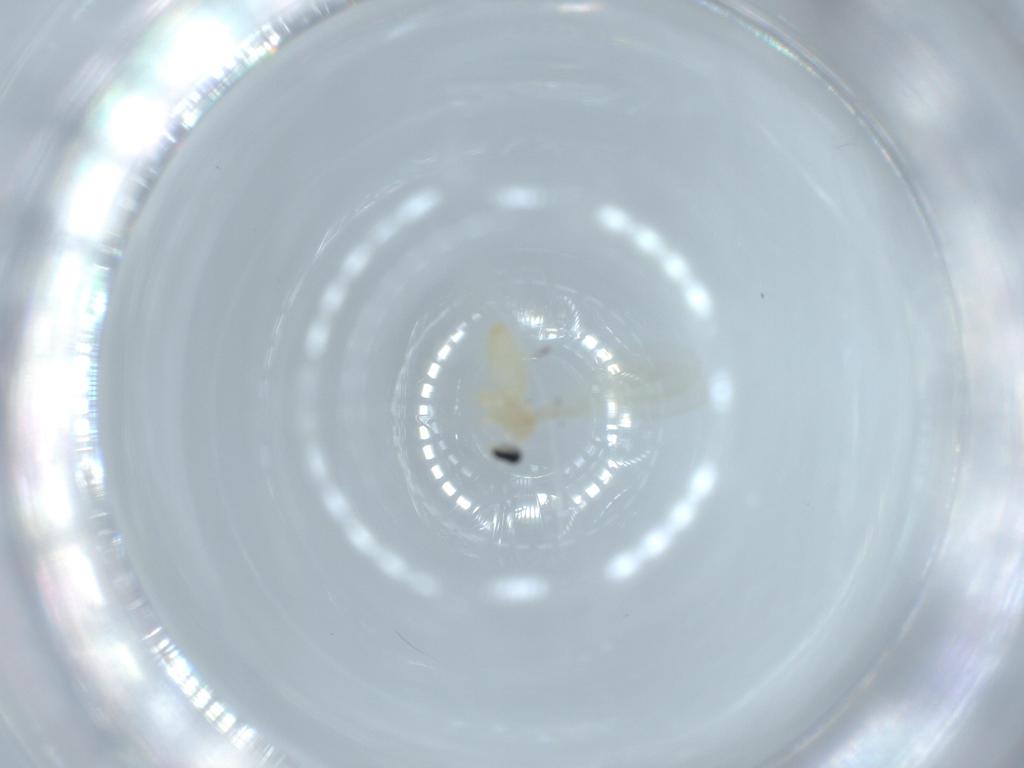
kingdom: Animalia
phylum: Arthropoda
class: Insecta
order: Diptera
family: Cecidomyiidae
